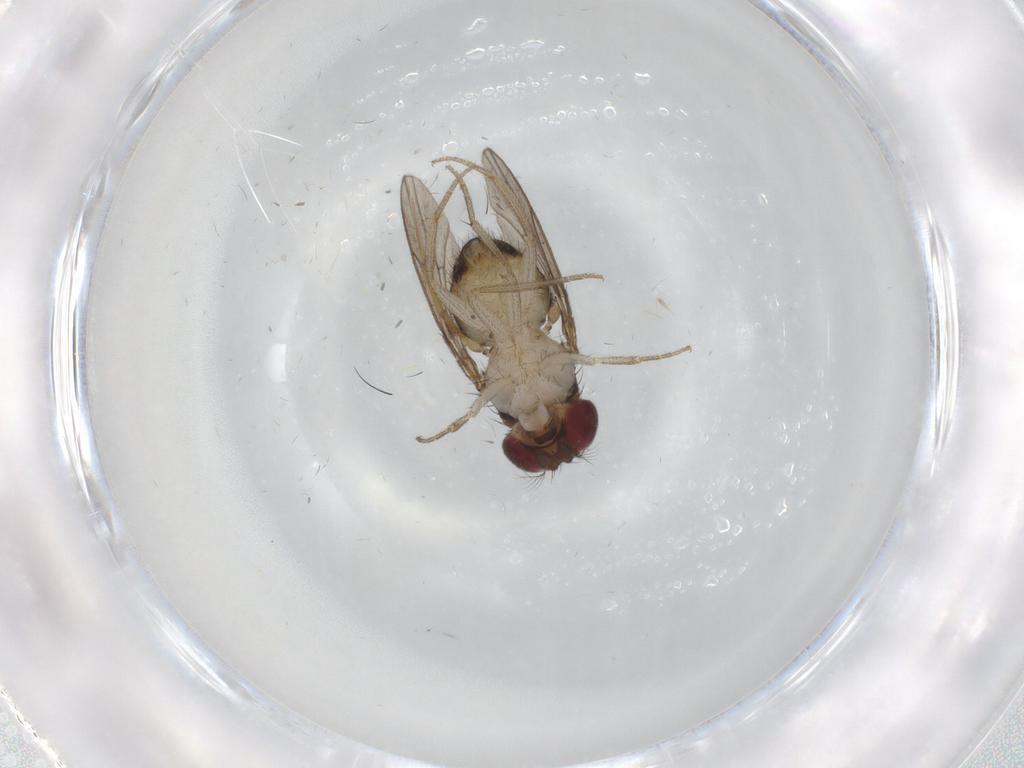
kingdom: Animalia
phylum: Arthropoda
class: Insecta
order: Diptera
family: Drosophilidae
